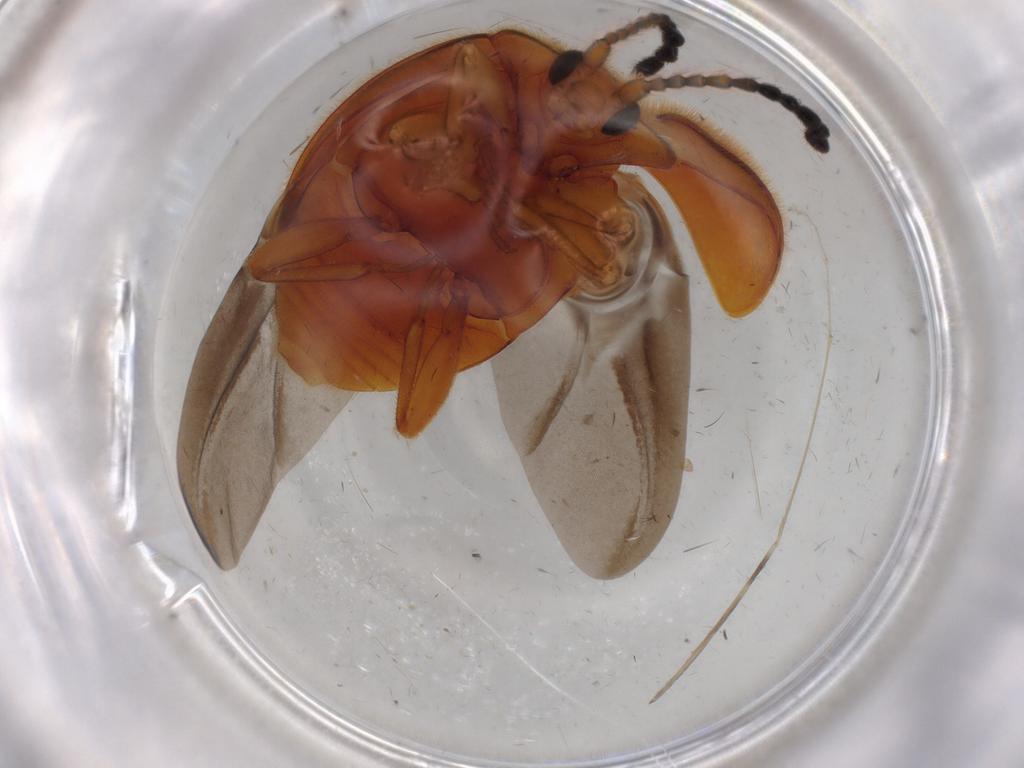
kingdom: Animalia
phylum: Arthropoda
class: Insecta
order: Coleoptera
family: Endomychidae
